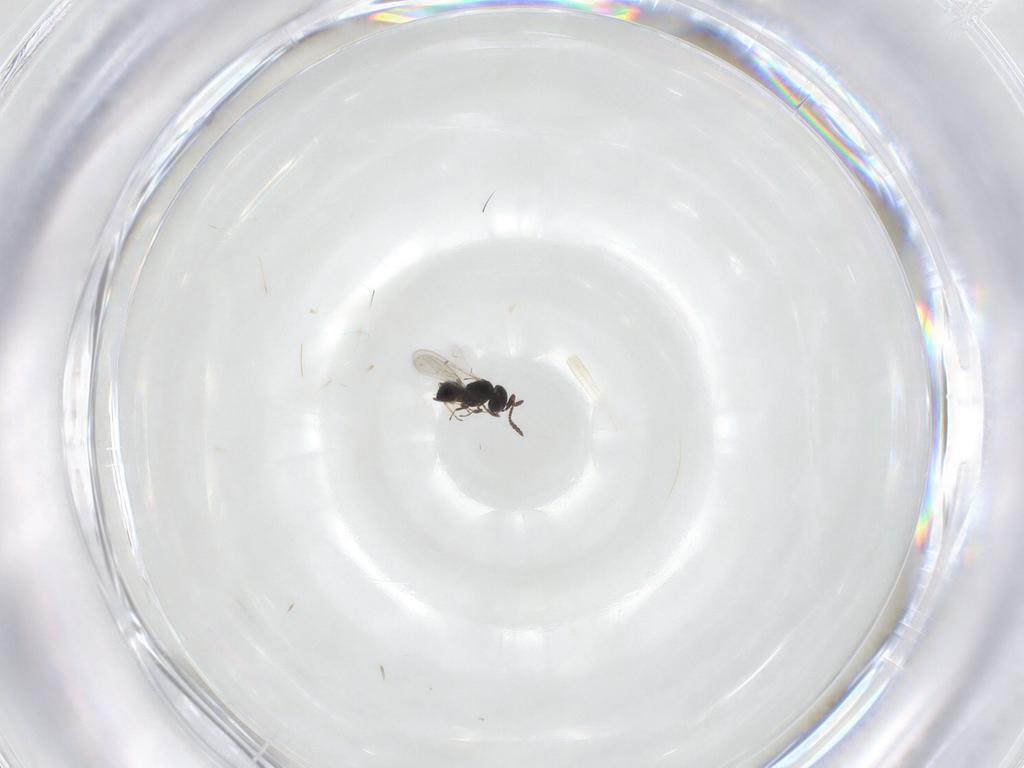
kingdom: Animalia
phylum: Arthropoda
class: Insecta
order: Hymenoptera
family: Scelionidae
